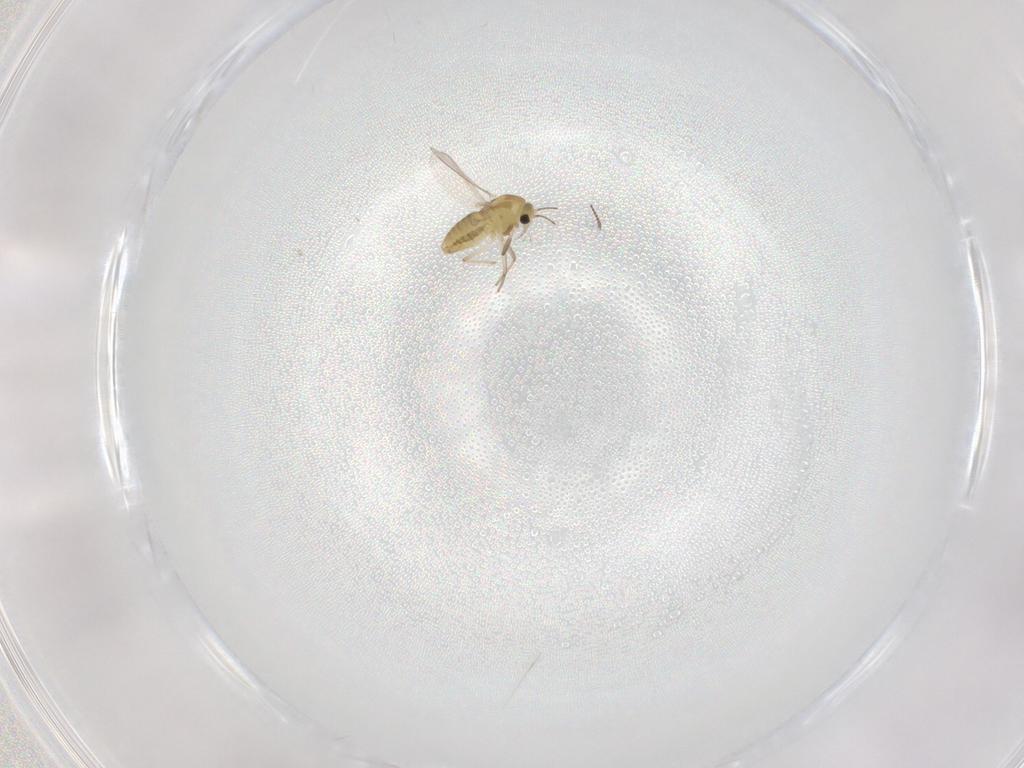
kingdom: Animalia
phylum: Arthropoda
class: Insecta
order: Diptera
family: Chironomidae
